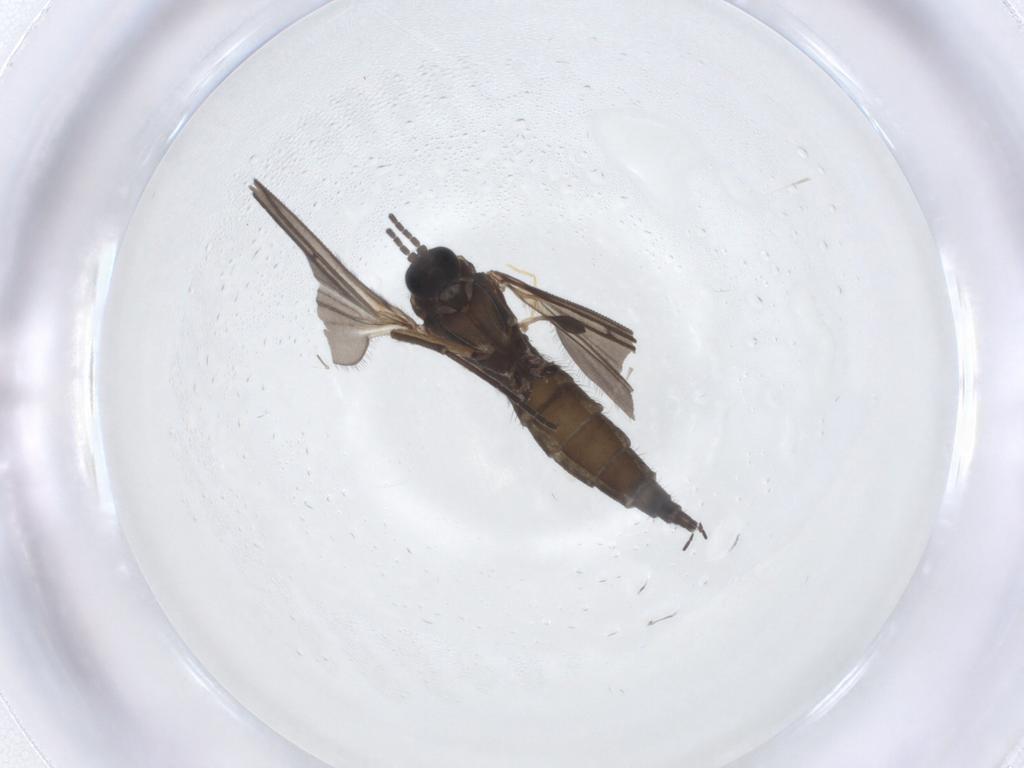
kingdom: Animalia
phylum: Arthropoda
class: Insecta
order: Diptera
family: Sciaridae
